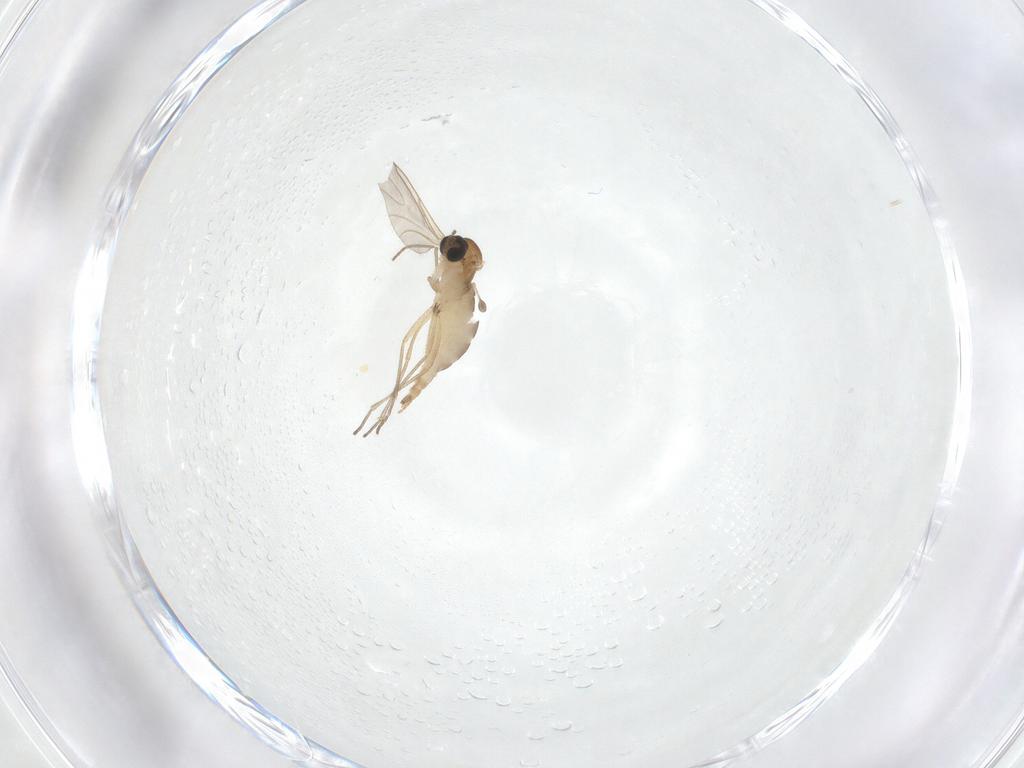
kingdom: Animalia
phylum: Arthropoda
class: Insecta
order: Diptera
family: Sciaridae
